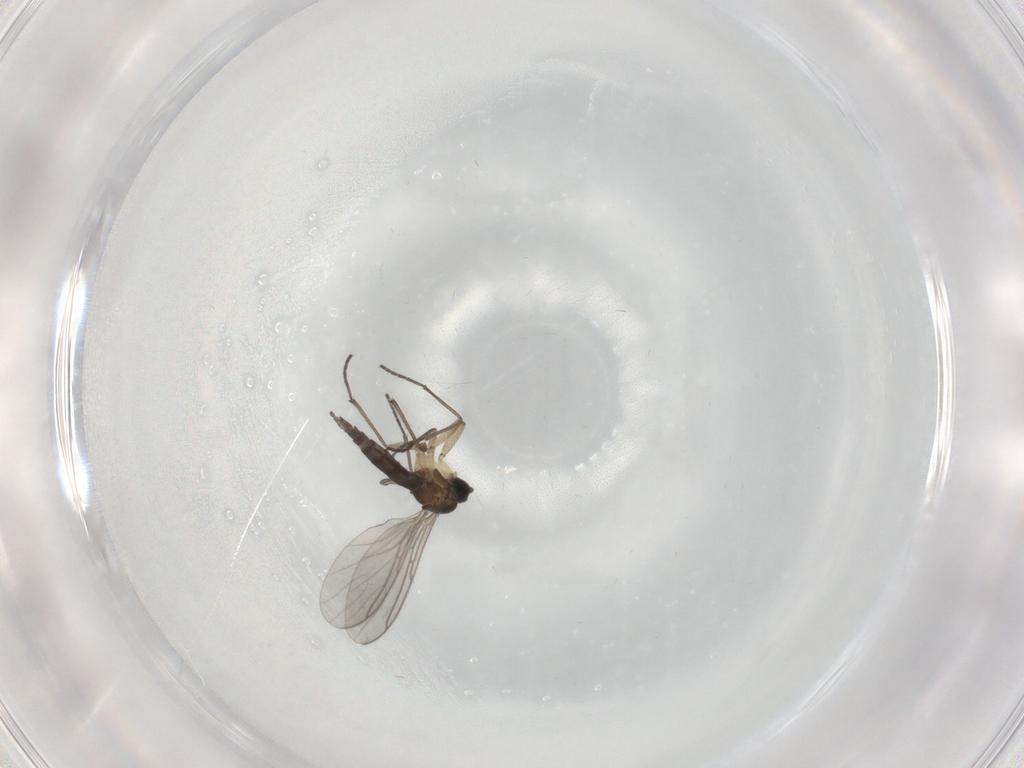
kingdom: Animalia
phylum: Arthropoda
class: Insecta
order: Diptera
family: Sciaridae
